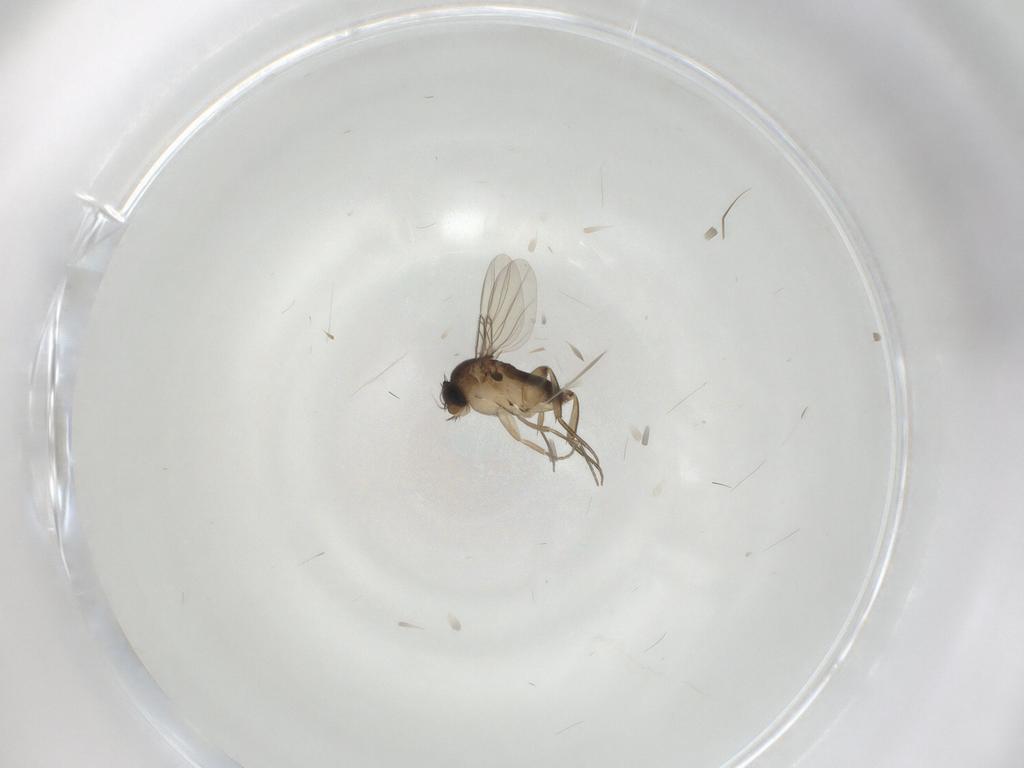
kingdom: Animalia
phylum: Arthropoda
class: Insecta
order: Diptera
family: Phoridae
